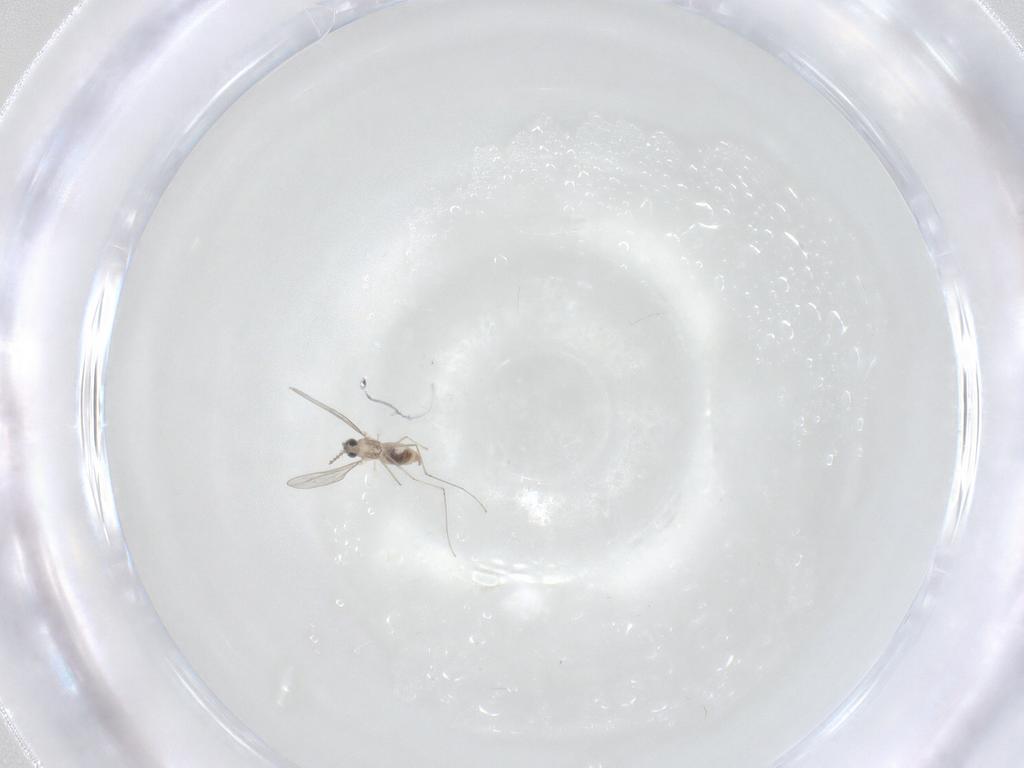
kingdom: Animalia
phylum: Arthropoda
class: Insecta
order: Diptera
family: Cecidomyiidae
